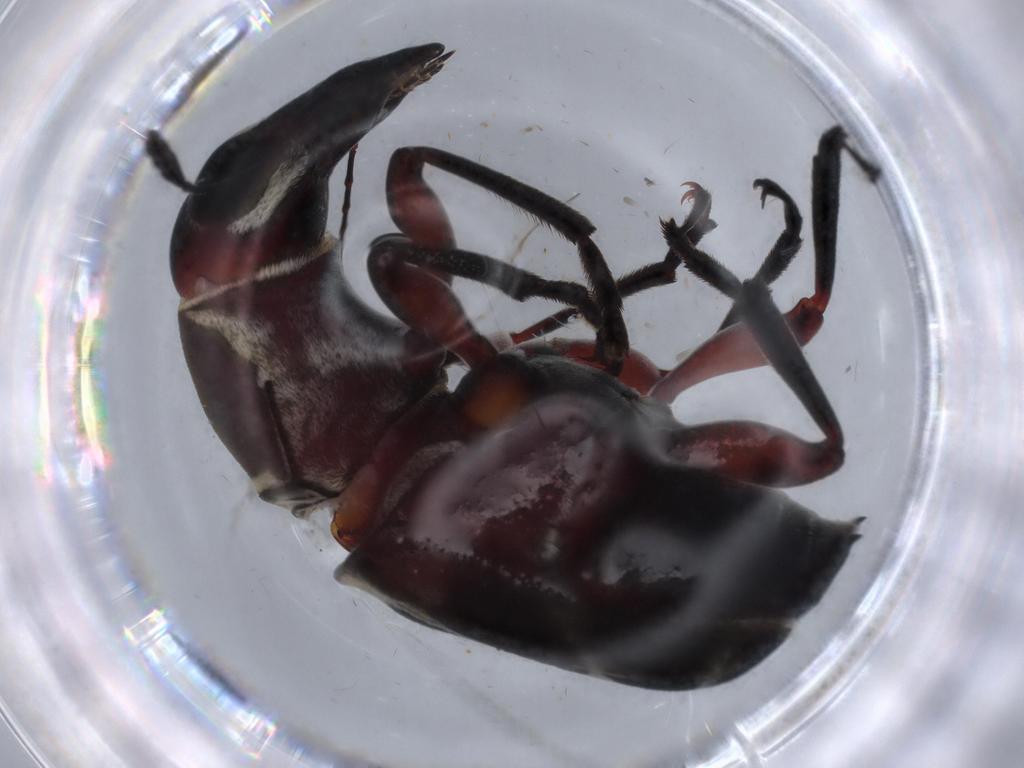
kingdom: Animalia
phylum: Arthropoda
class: Insecta
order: Coleoptera
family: Anthribidae
